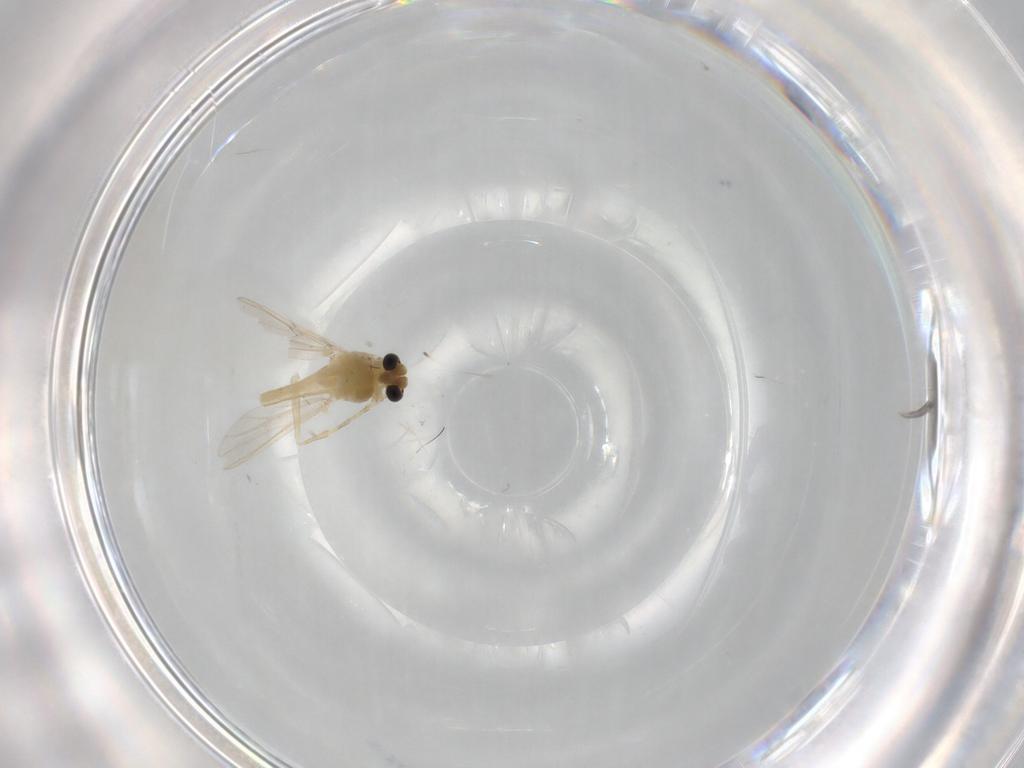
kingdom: Animalia
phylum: Arthropoda
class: Insecta
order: Diptera
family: Chironomidae
